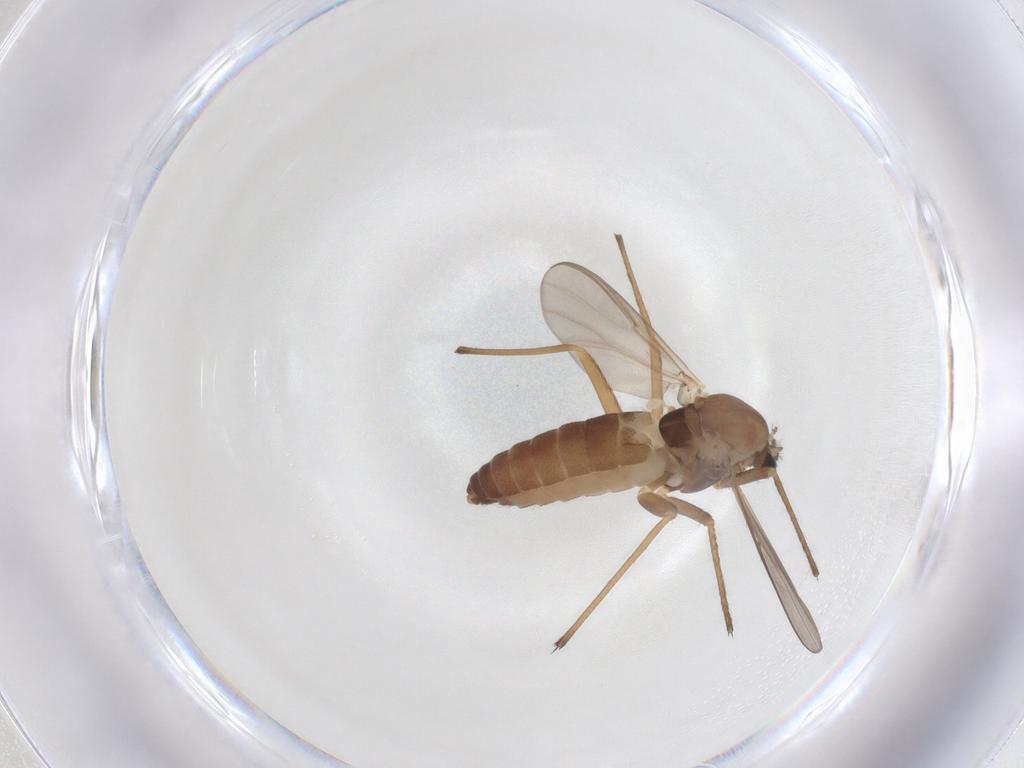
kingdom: Animalia
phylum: Arthropoda
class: Insecta
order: Diptera
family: Chironomidae
